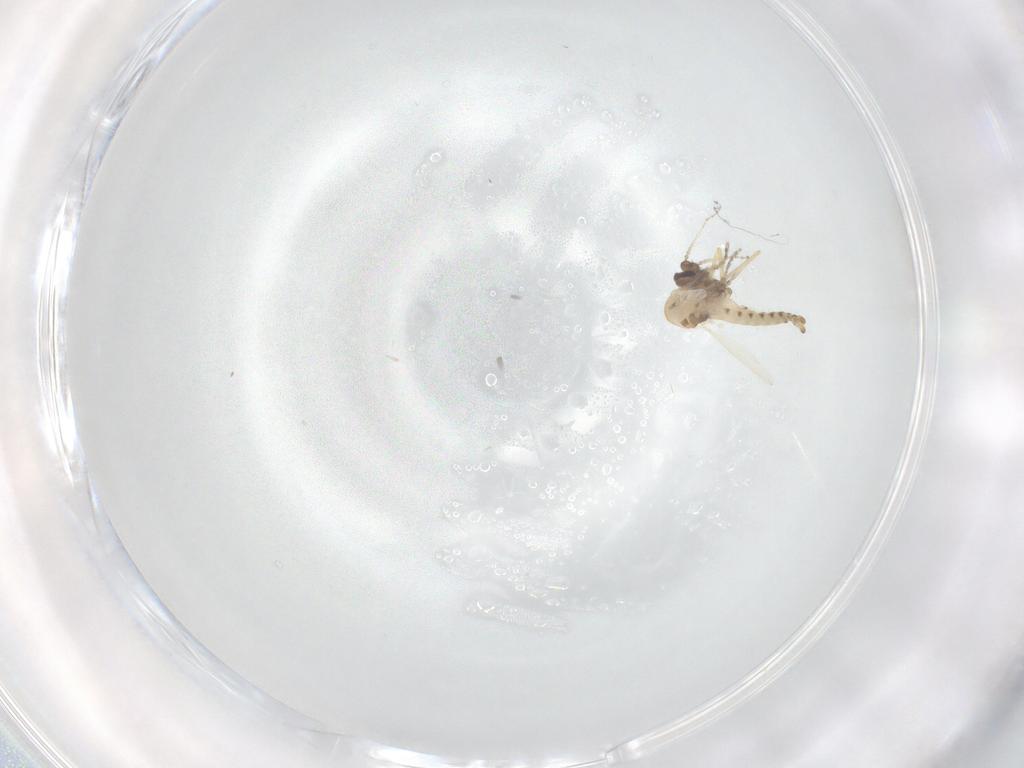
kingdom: Animalia
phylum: Arthropoda
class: Insecta
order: Diptera
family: Ceratopogonidae
